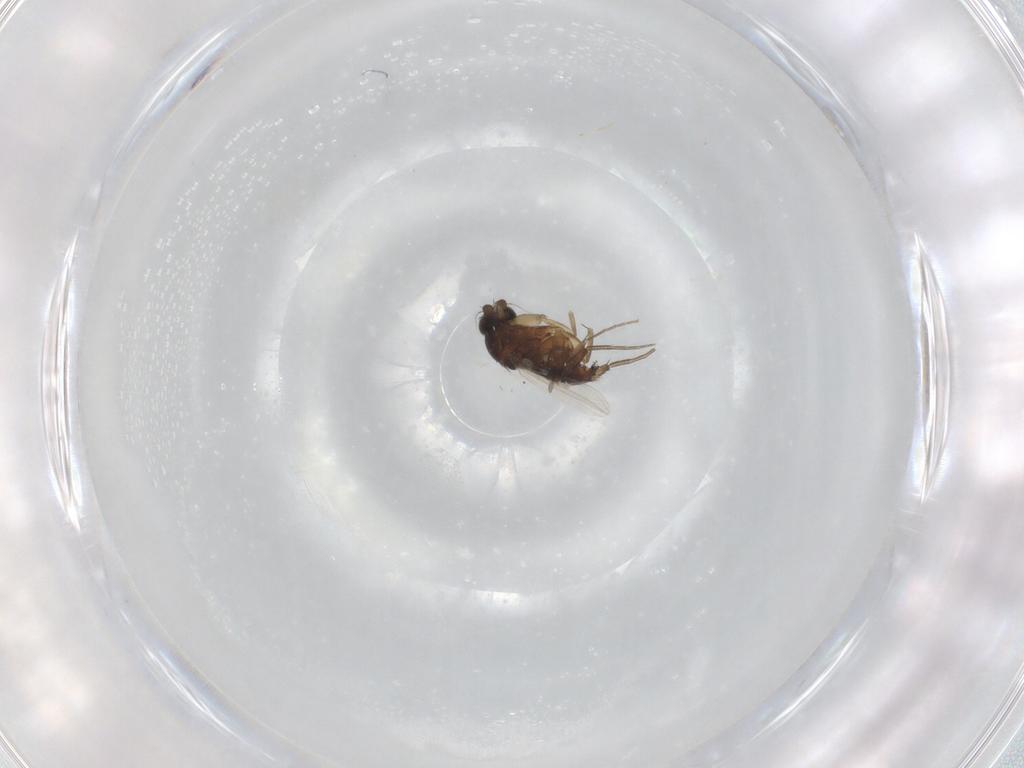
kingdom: Animalia
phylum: Arthropoda
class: Insecta
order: Diptera
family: Phoridae
